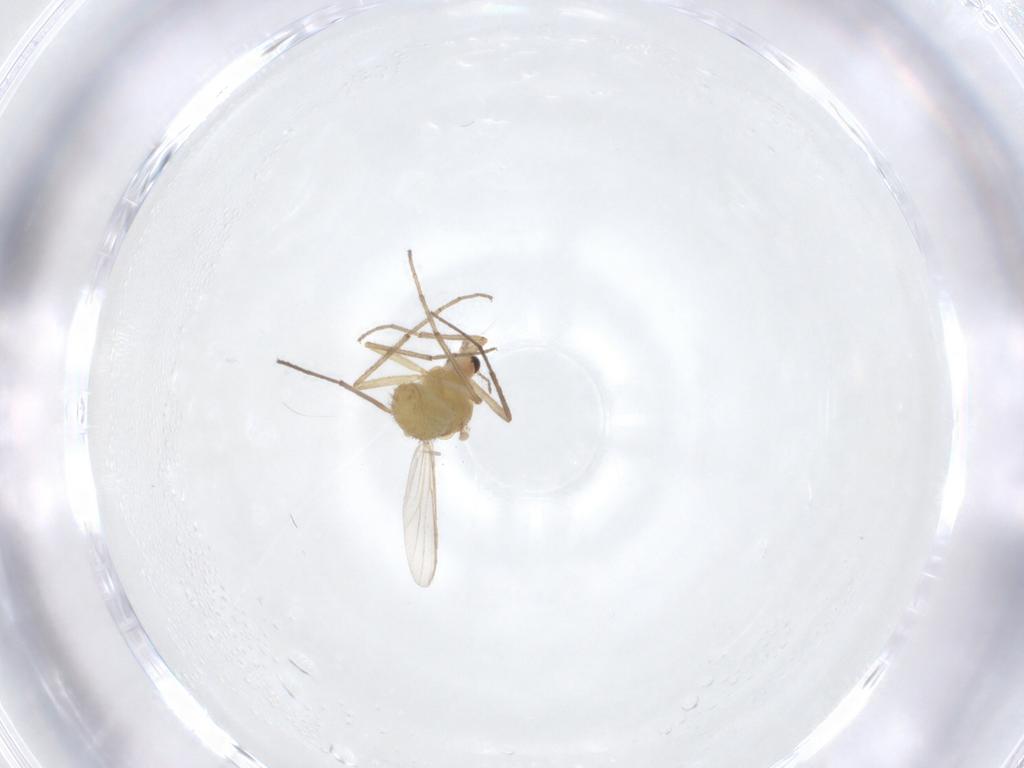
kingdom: Animalia
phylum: Arthropoda
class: Insecta
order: Diptera
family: Chironomidae
